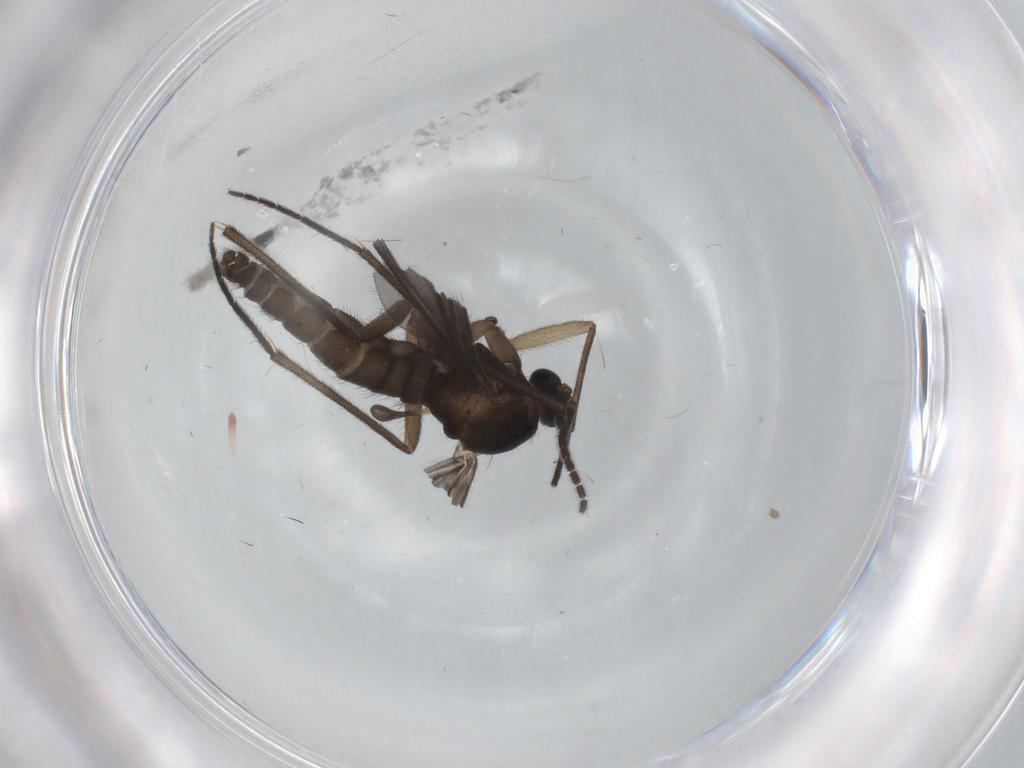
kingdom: Animalia
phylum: Arthropoda
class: Insecta
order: Diptera
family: Sciaridae
